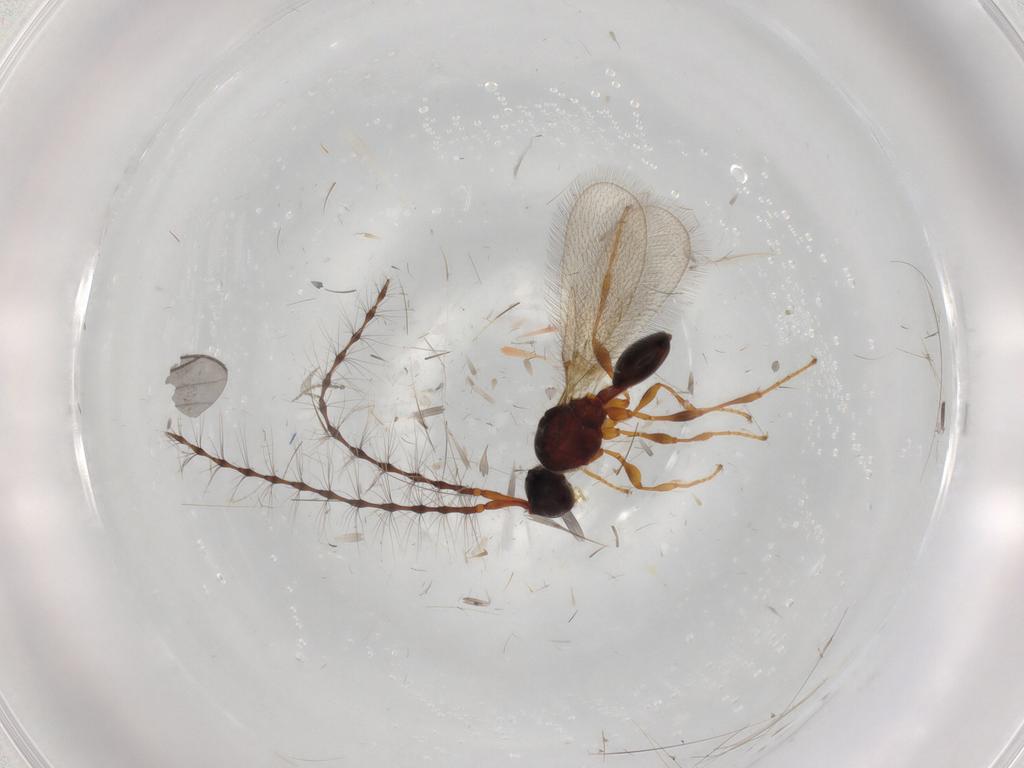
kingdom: Animalia
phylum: Arthropoda
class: Insecta
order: Hymenoptera
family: Diapriidae
